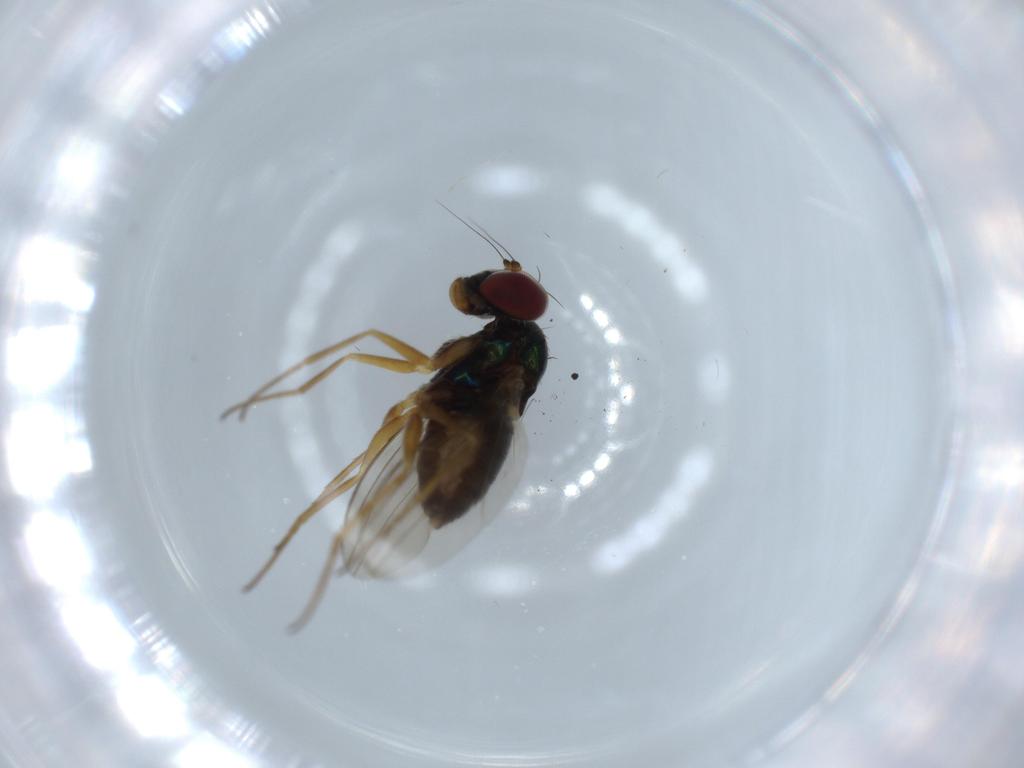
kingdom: Animalia
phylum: Arthropoda
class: Insecta
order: Diptera
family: Dolichopodidae
